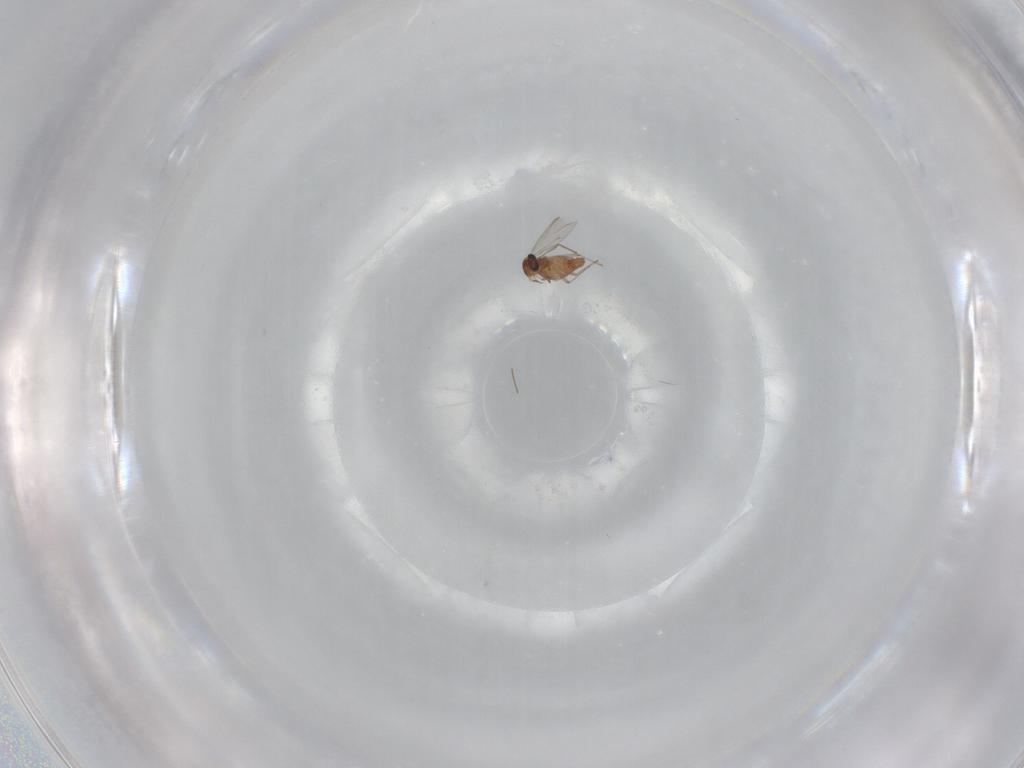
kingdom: Animalia
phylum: Arthropoda
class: Insecta
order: Diptera
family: Chironomidae
